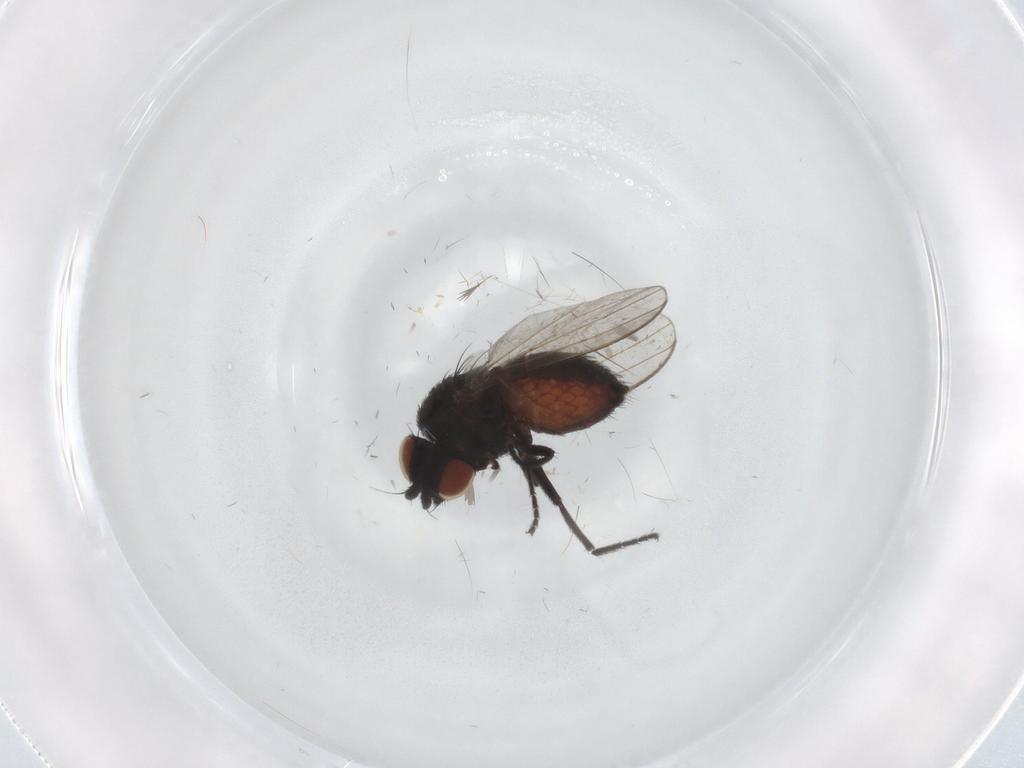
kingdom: Animalia
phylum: Arthropoda
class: Insecta
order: Diptera
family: Milichiidae
